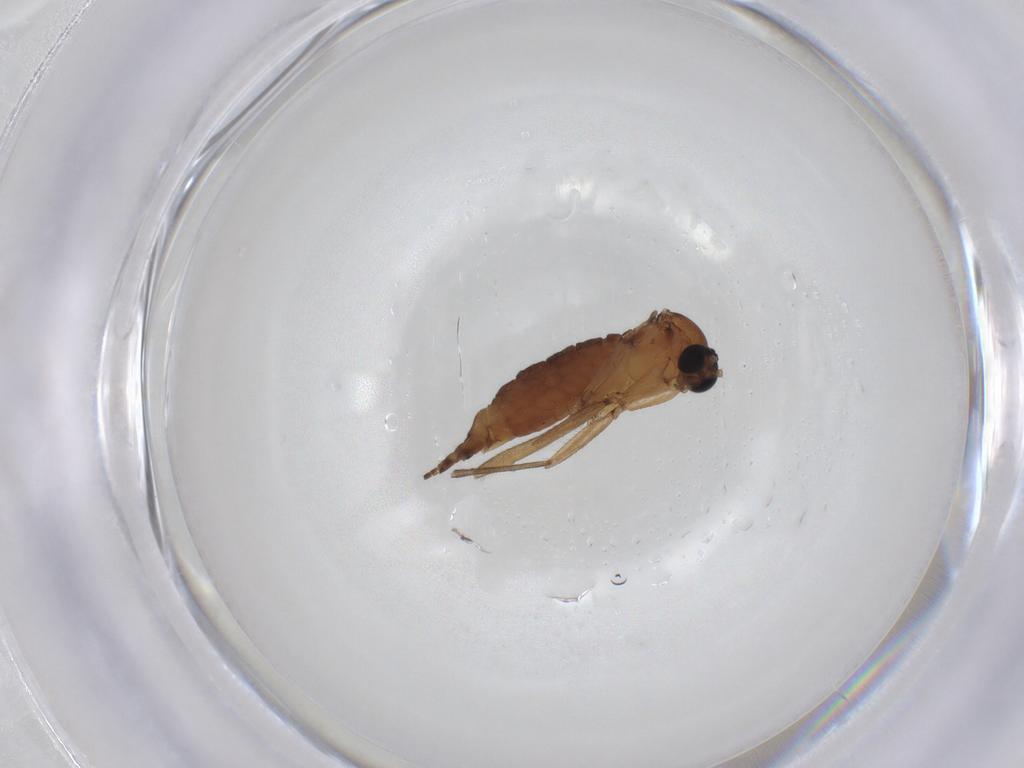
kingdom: Animalia
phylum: Arthropoda
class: Insecta
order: Diptera
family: Sciaridae
